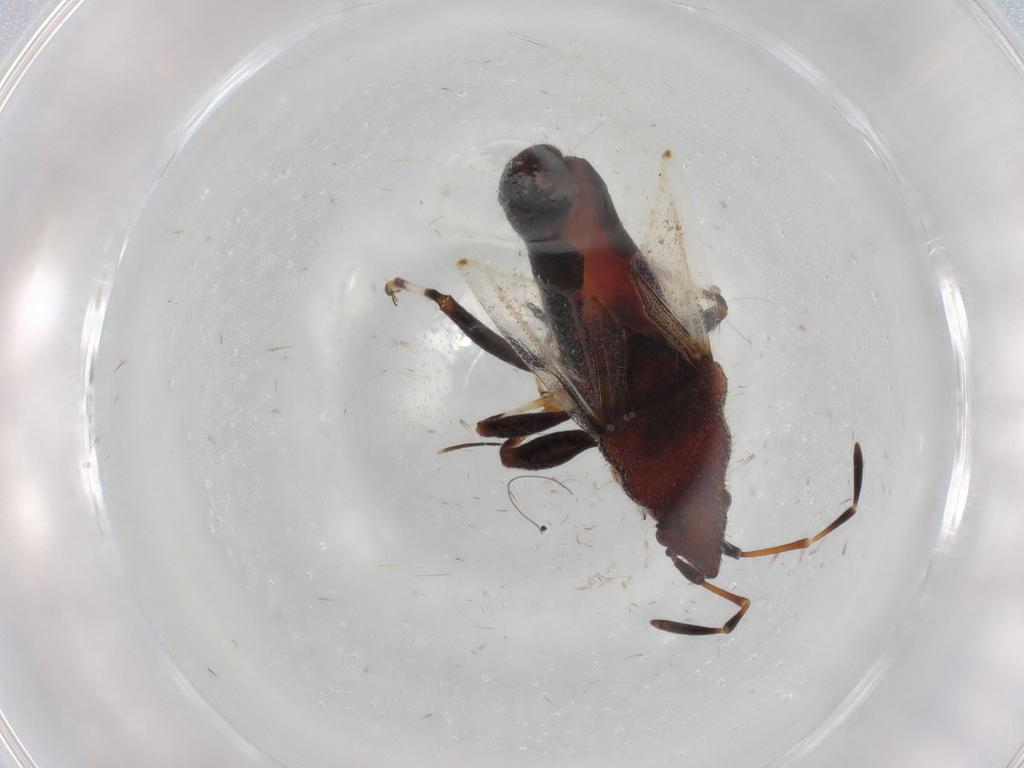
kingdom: Animalia
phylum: Arthropoda
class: Insecta
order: Hemiptera
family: Oxycarenidae
